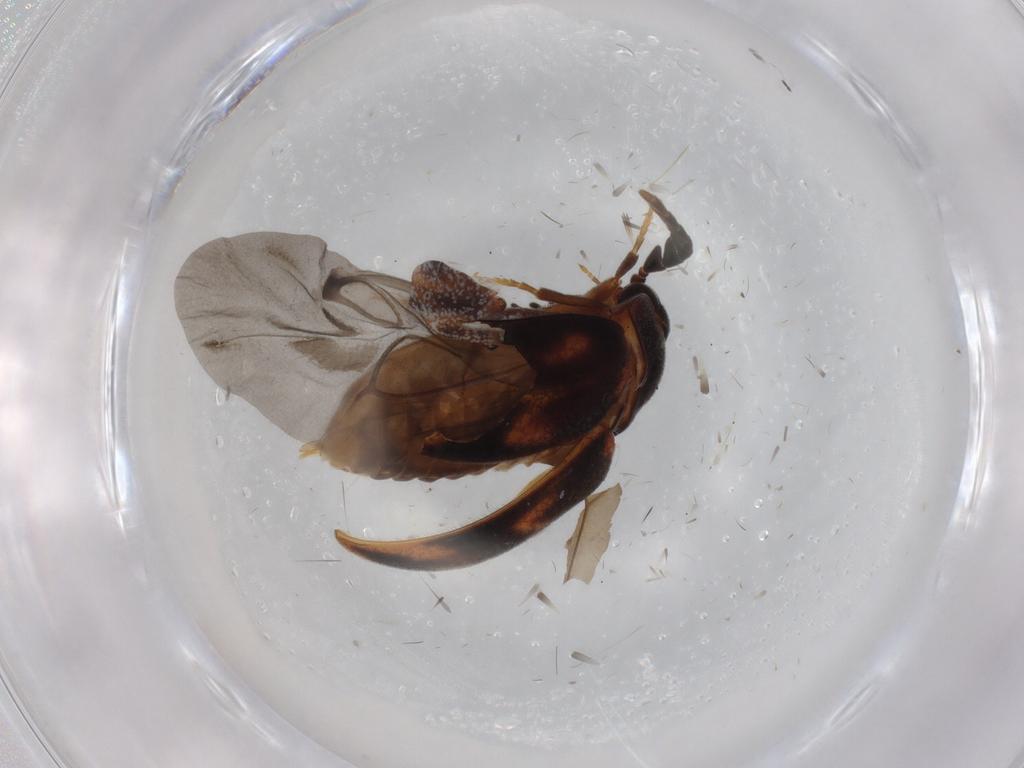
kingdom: Animalia
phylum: Arthropoda
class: Insecta
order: Coleoptera
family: Psephenidae
